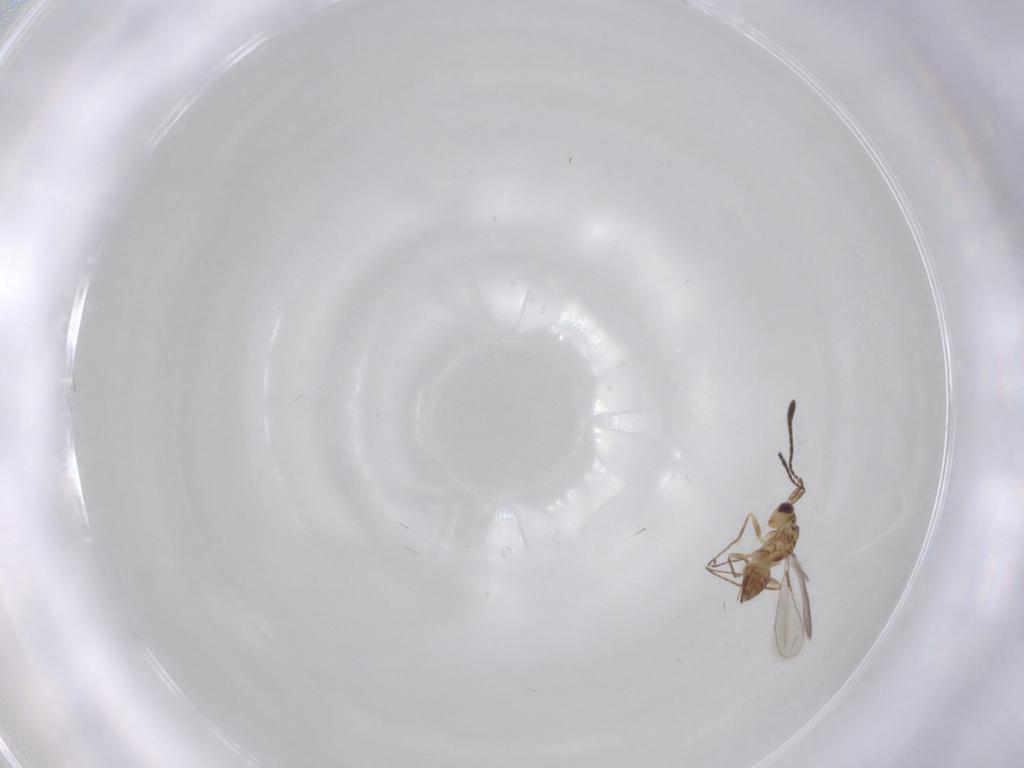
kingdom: Animalia
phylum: Arthropoda
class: Insecta
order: Hymenoptera
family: Mymaridae
